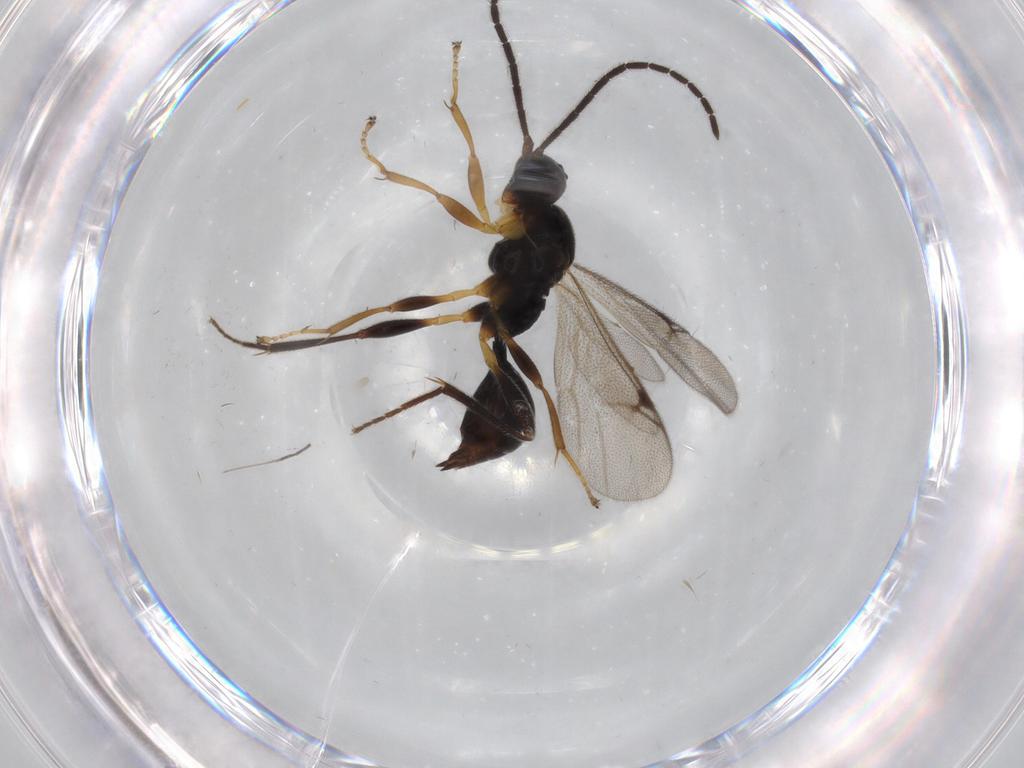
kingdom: Animalia
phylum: Arthropoda
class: Insecta
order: Hymenoptera
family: Proctotrupidae
